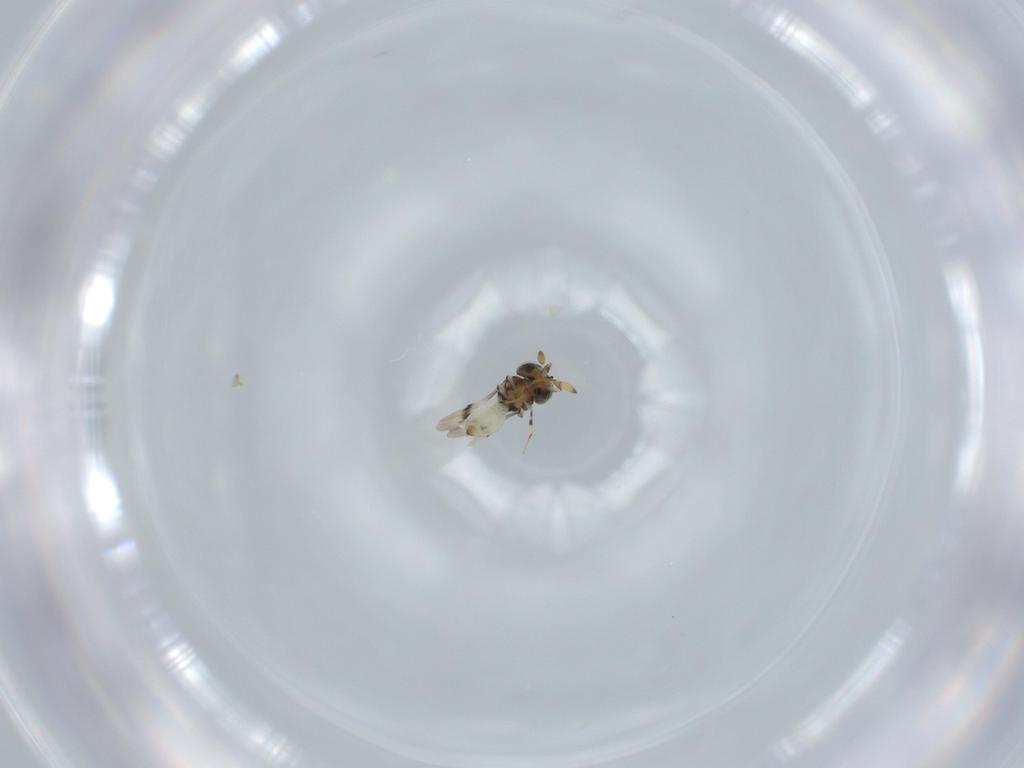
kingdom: Animalia
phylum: Arthropoda
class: Insecta
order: Hymenoptera
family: Scelionidae
